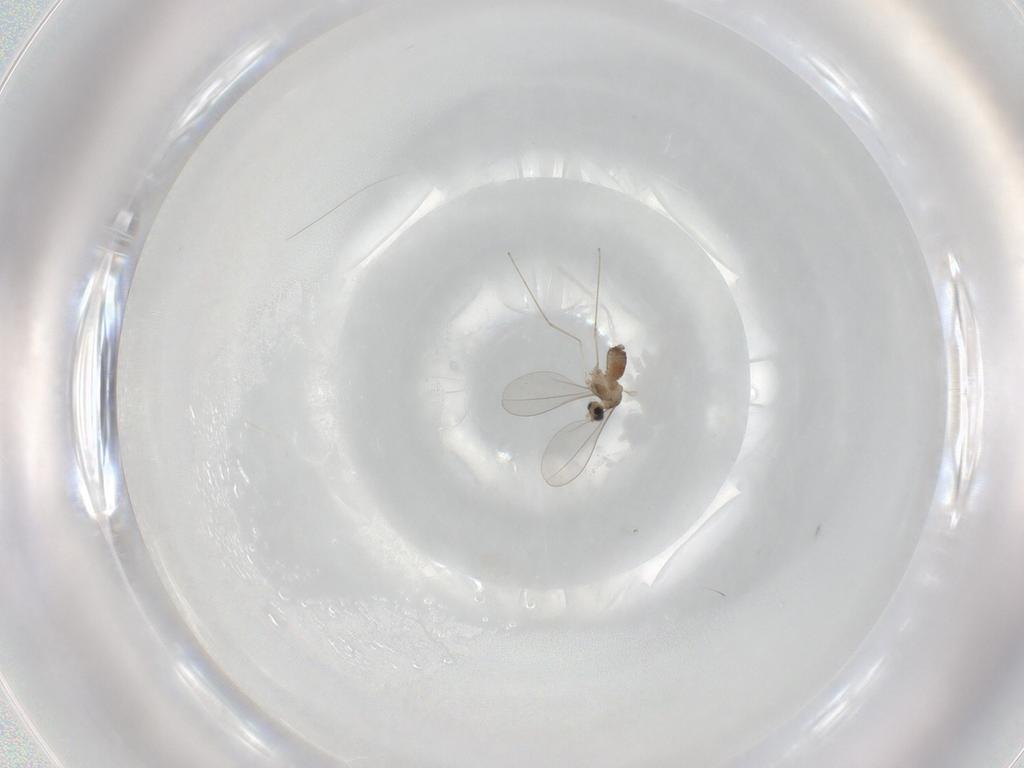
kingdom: Animalia
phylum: Arthropoda
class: Insecta
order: Diptera
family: Cecidomyiidae
